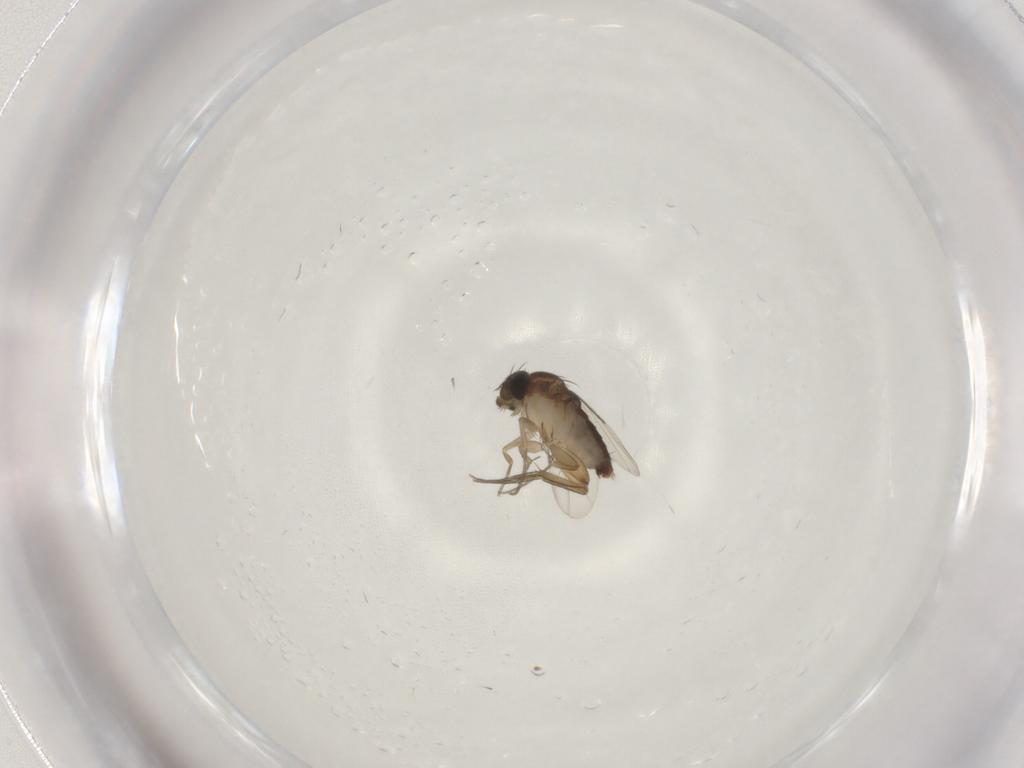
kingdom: Animalia
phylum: Arthropoda
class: Insecta
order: Diptera
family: Phoridae
